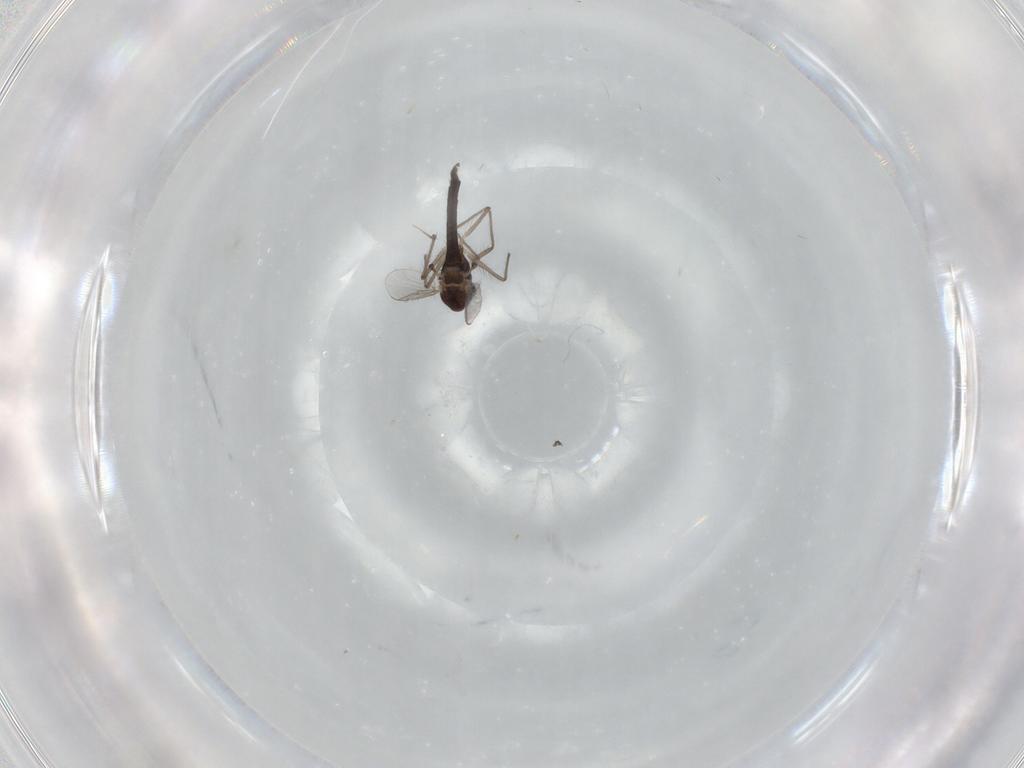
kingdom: Animalia
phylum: Arthropoda
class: Insecta
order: Diptera
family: Chironomidae
